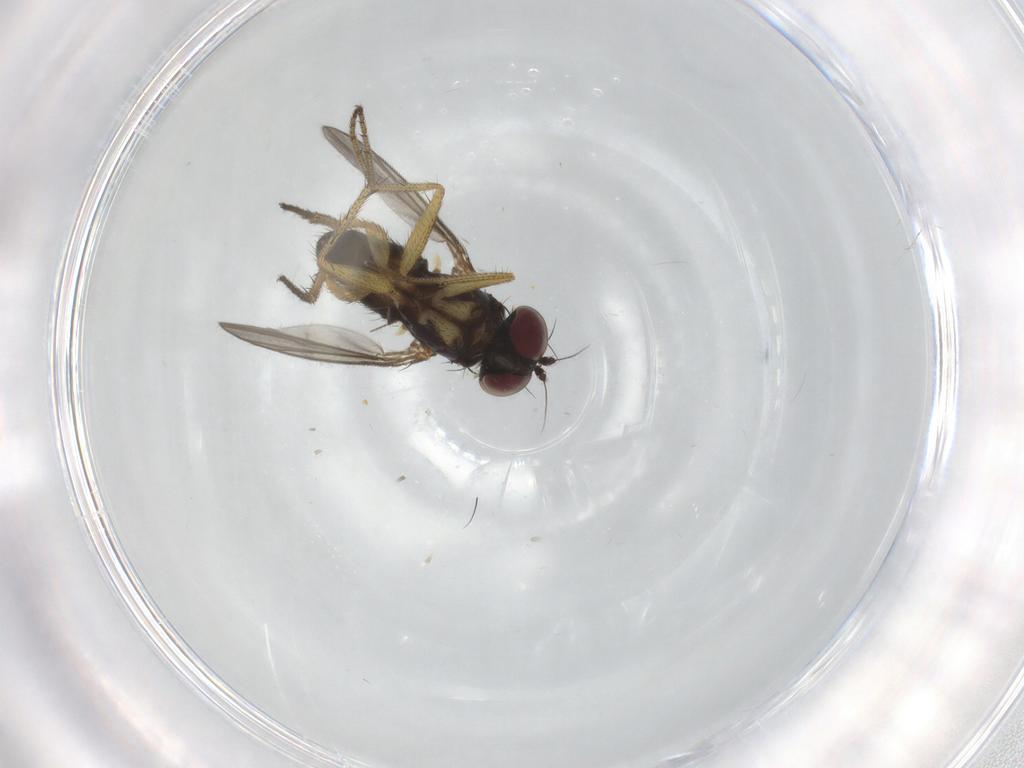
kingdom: Animalia
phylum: Arthropoda
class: Insecta
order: Diptera
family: Chironomidae
